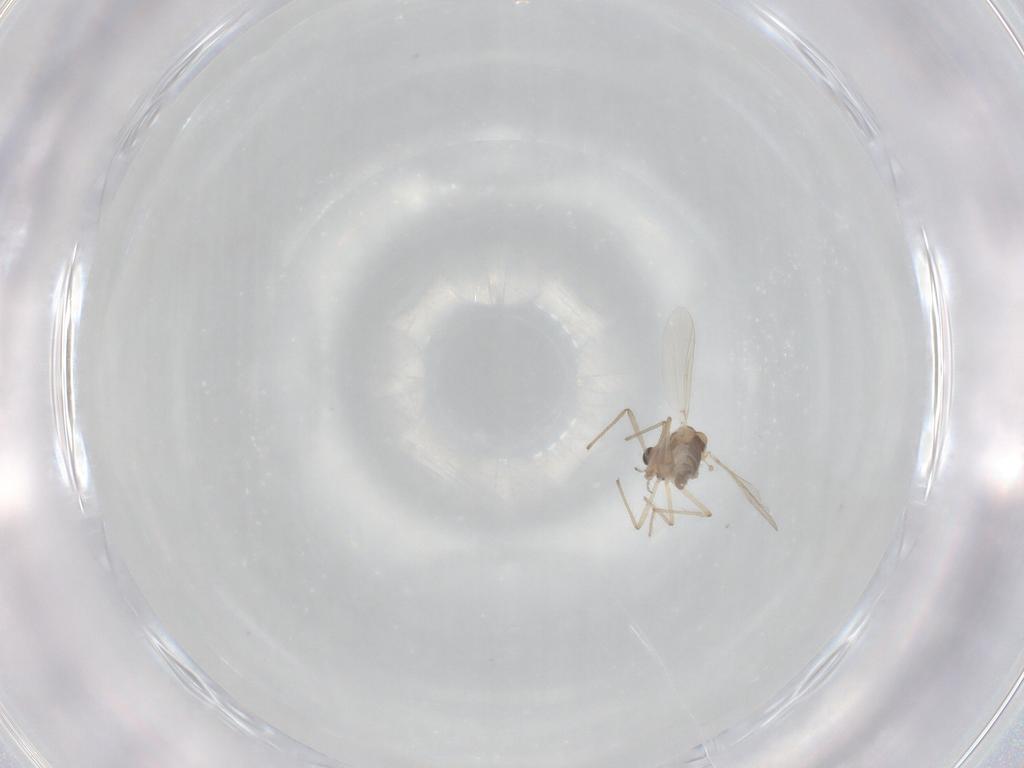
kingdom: Animalia
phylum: Arthropoda
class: Insecta
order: Diptera
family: Chironomidae
